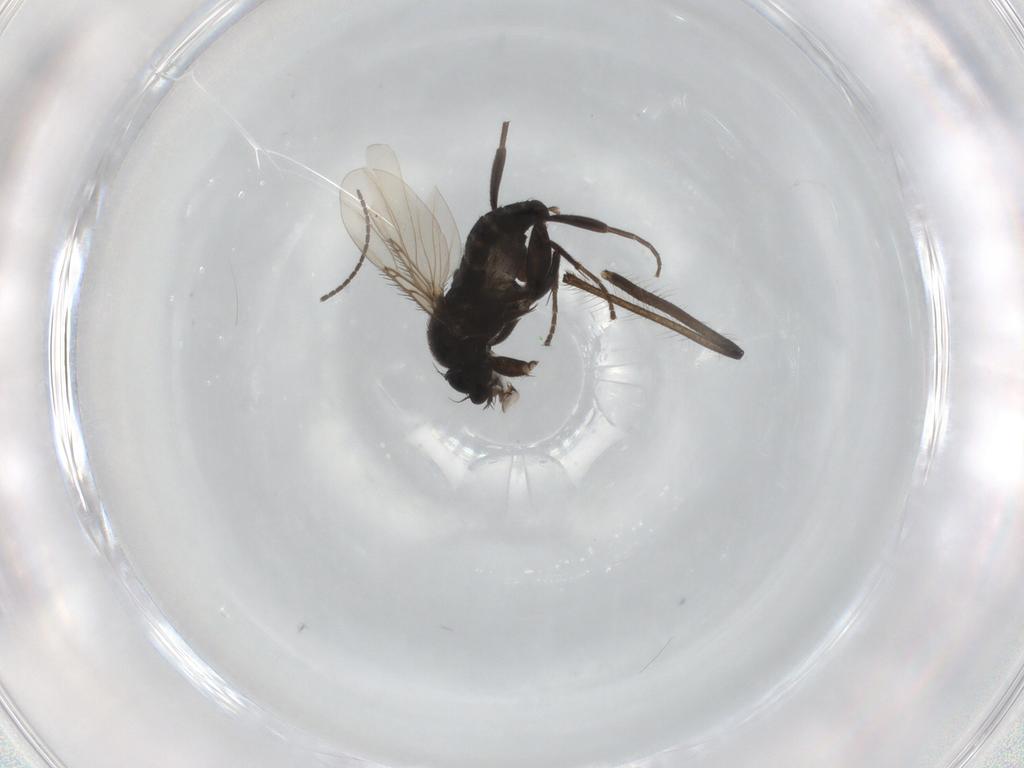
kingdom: Animalia
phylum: Arthropoda
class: Insecta
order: Diptera
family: Phoridae
